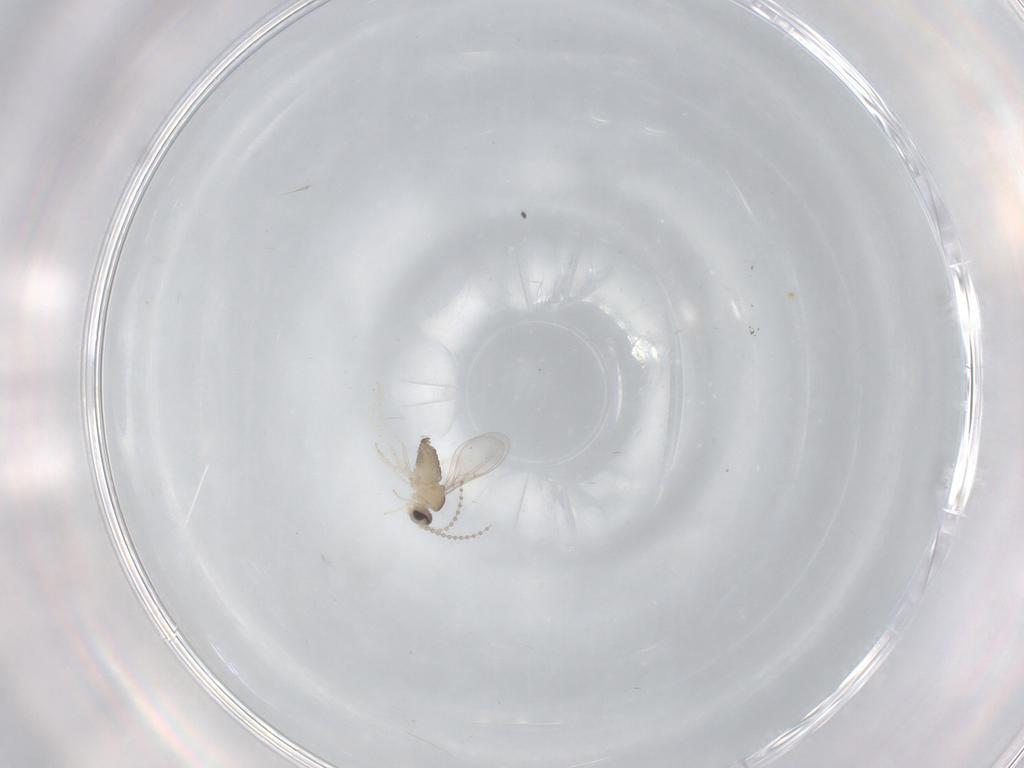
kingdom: Animalia
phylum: Arthropoda
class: Insecta
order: Diptera
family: Cecidomyiidae
